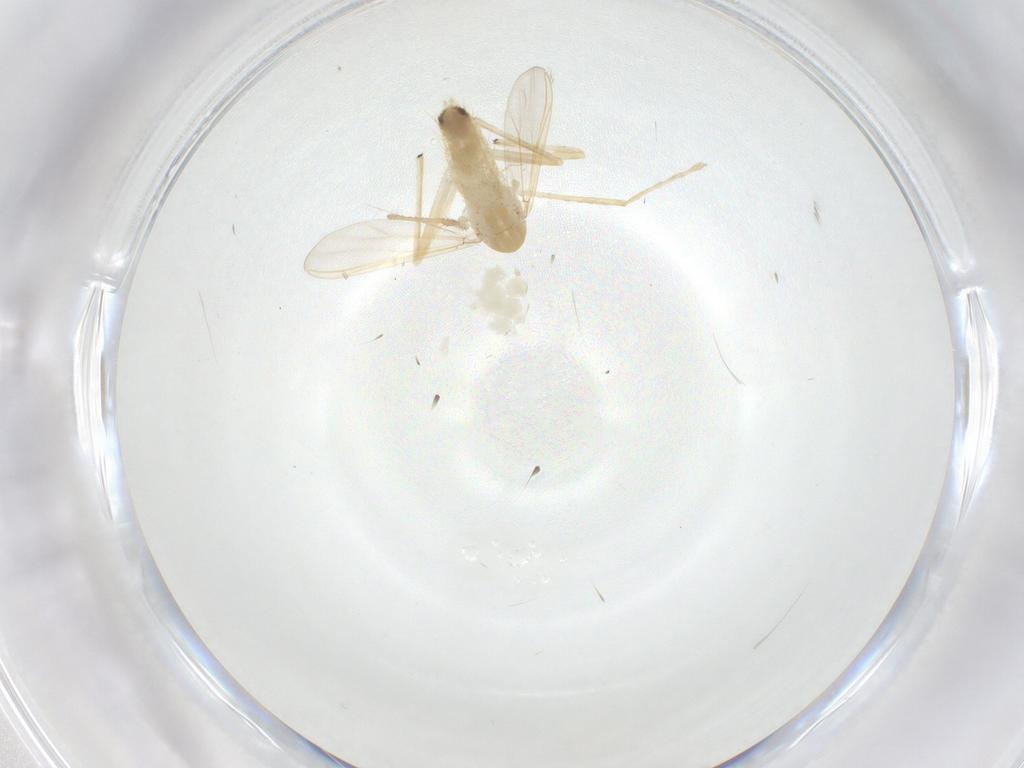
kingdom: Animalia
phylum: Arthropoda
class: Insecta
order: Diptera
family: Chironomidae
